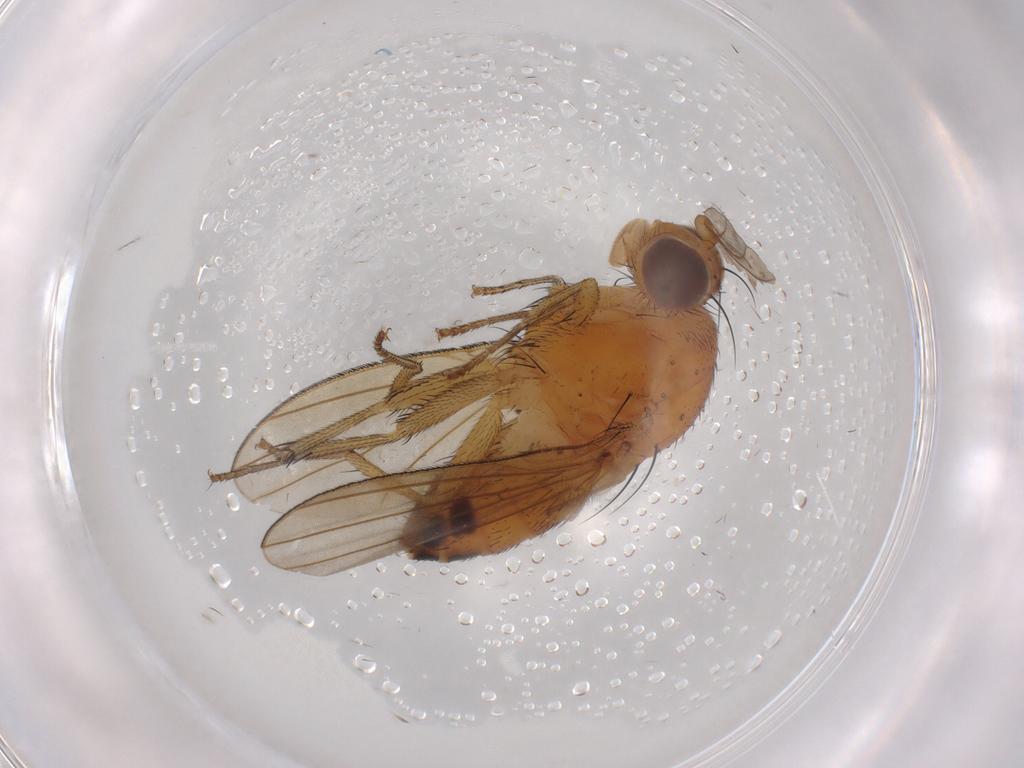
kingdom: Animalia
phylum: Arthropoda
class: Insecta
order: Diptera
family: Lauxaniidae
